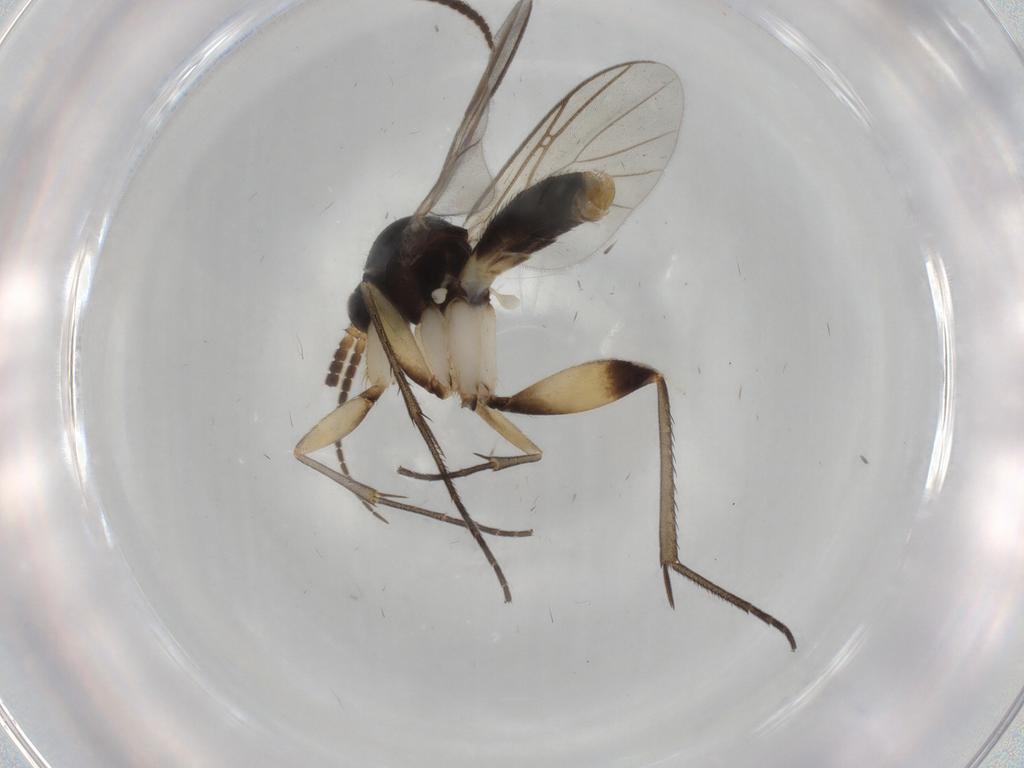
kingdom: Animalia
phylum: Arthropoda
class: Insecta
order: Diptera
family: Mycetophilidae
